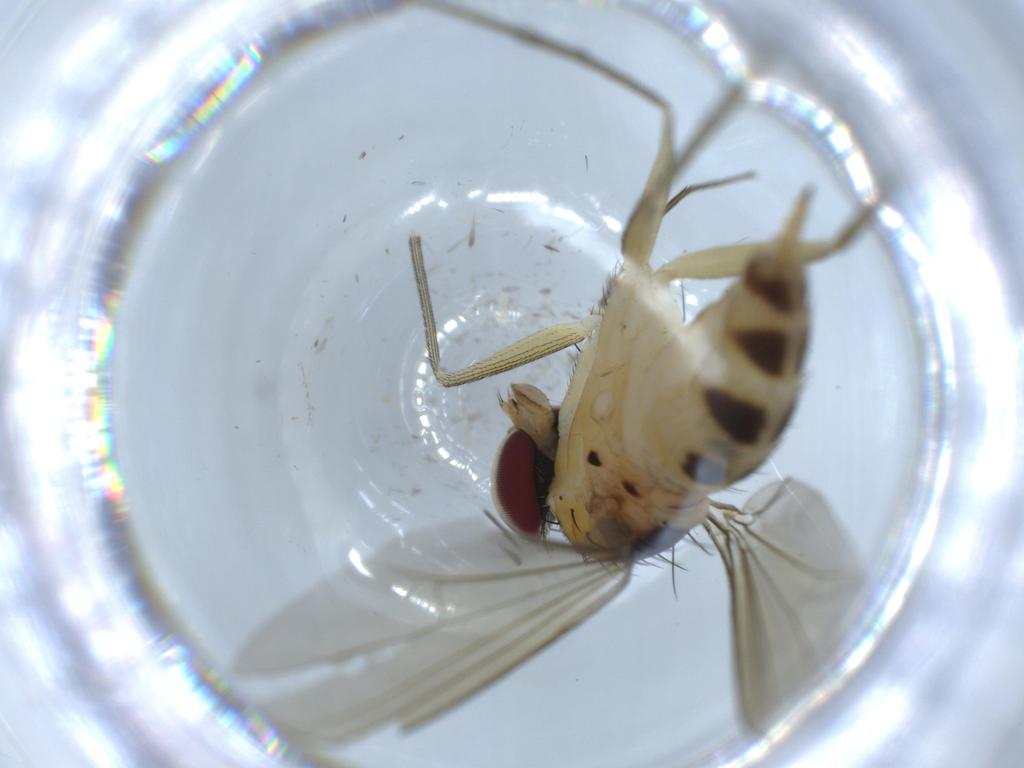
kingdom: Animalia
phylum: Arthropoda
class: Insecta
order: Diptera
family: Dolichopodidae
